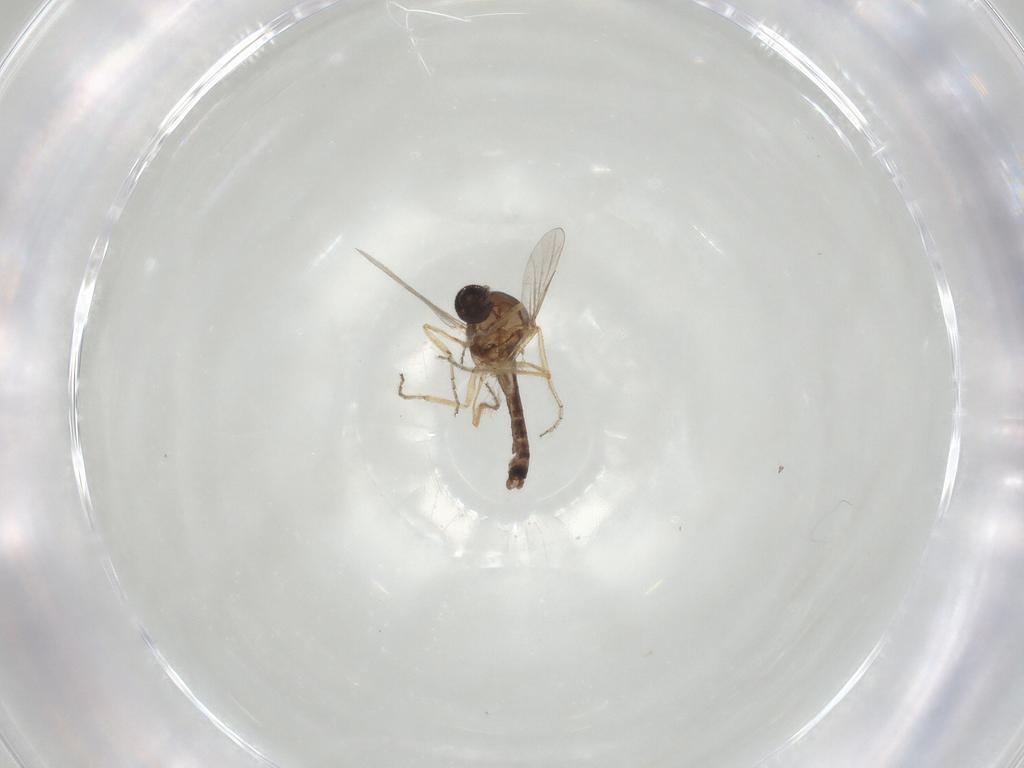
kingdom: Animalia
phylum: Arthropoda
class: Insecta
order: Diptera
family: Ceratopogonidae
